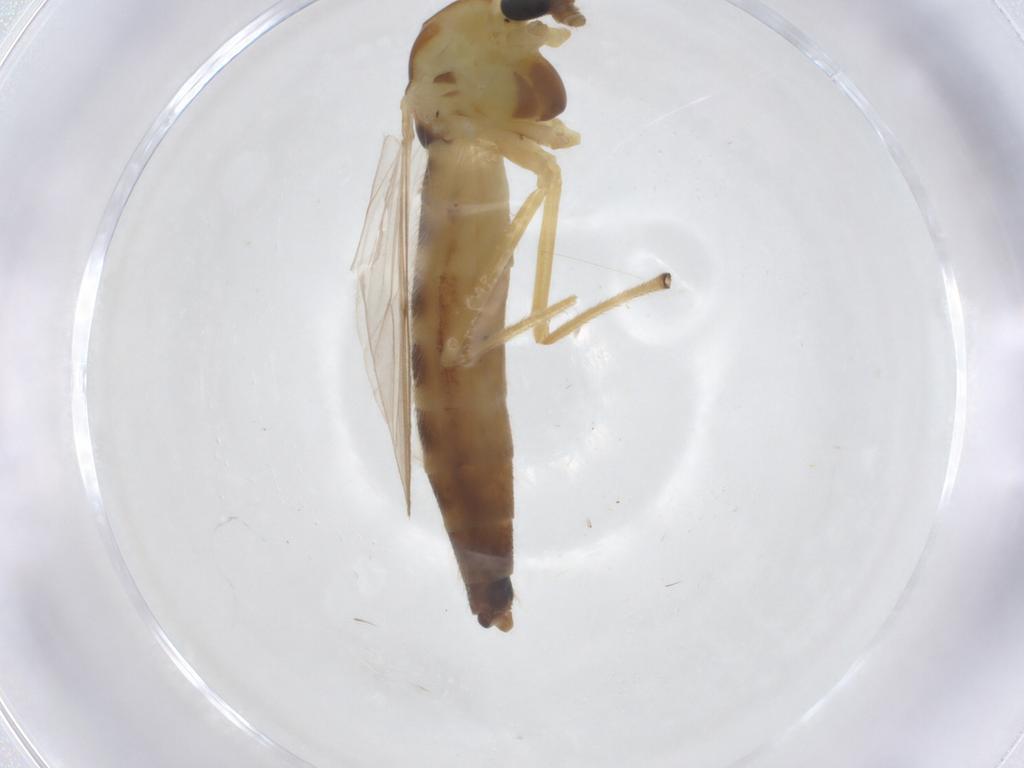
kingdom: Animalia
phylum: Arthropoda
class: Insecta
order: Diptera
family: Chironomidae
